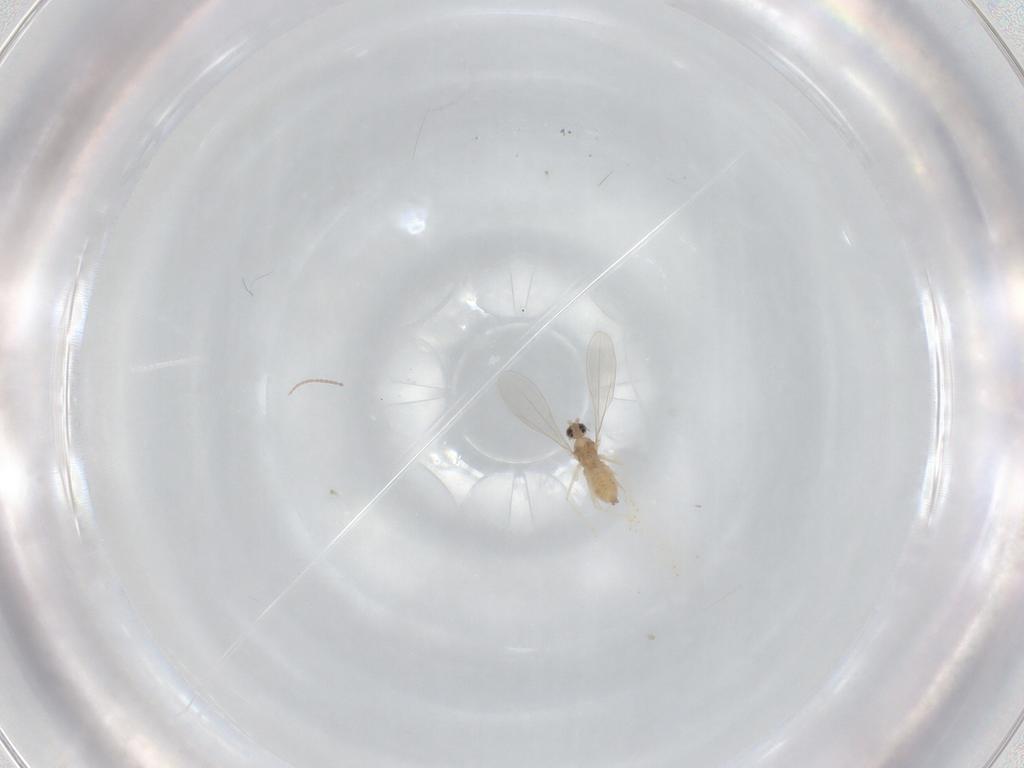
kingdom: Animalia
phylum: Arthropoda
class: Insecta
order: Diptera
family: Cecidomyiidae
